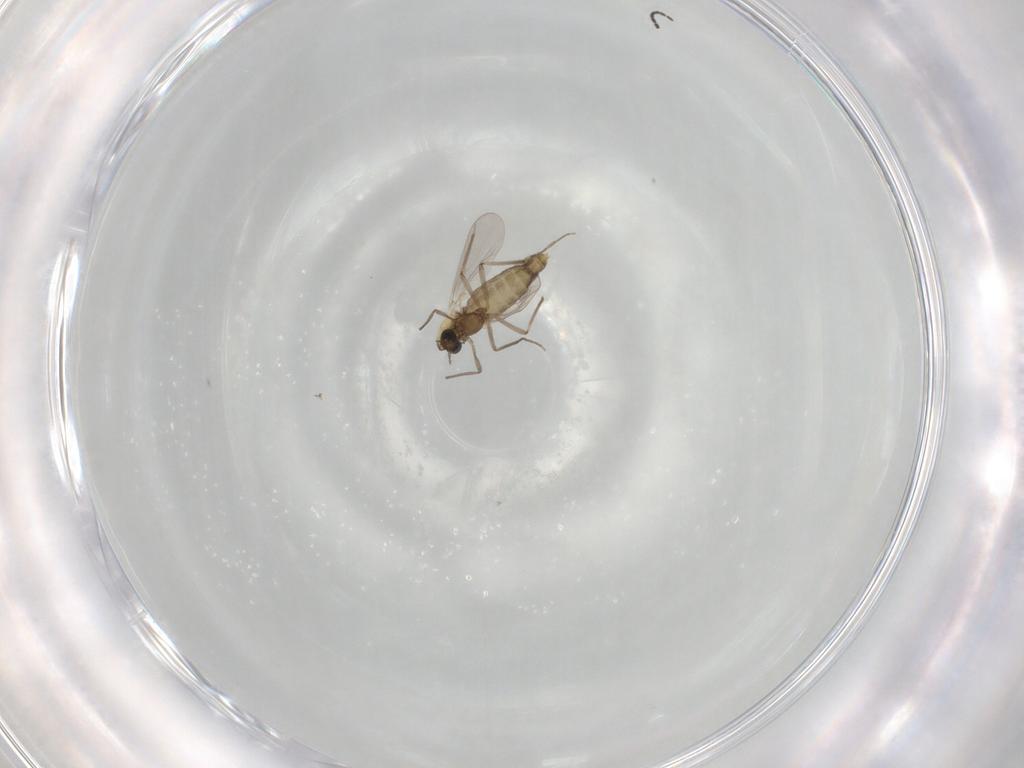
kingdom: Animalia
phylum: Arthropoda
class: Insecta
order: Diptera
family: Chironomidae
